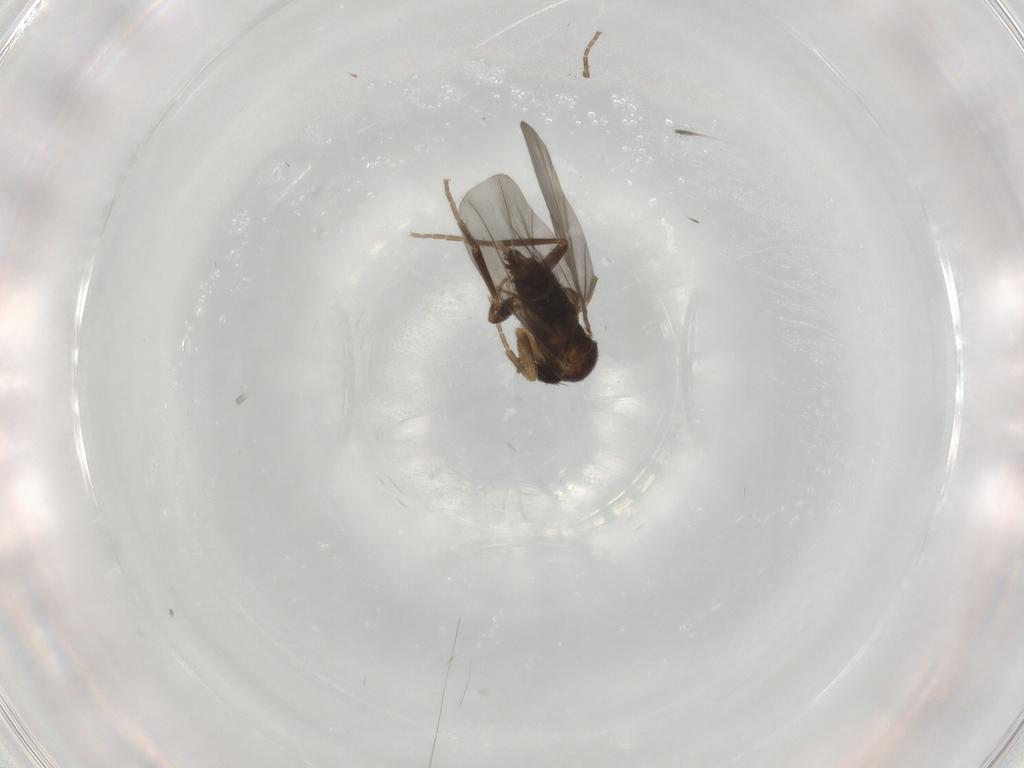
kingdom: Animalia
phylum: Arthropoda
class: Insecta
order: Diptera
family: Phoridae
